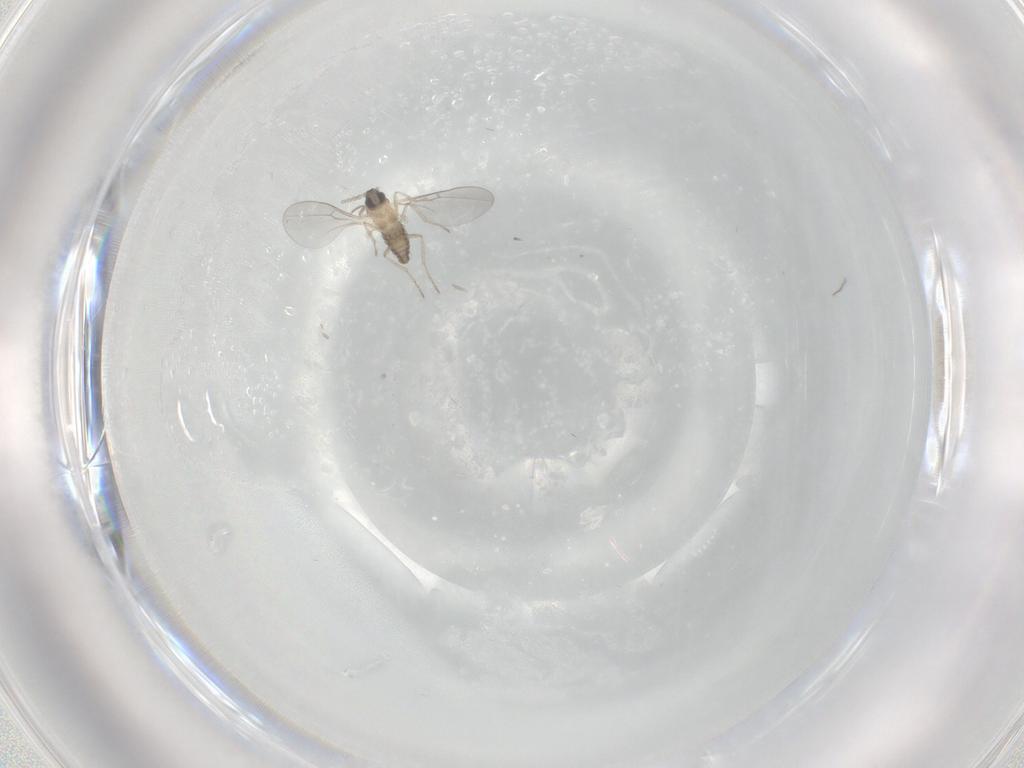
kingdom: Animalia
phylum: Arthropoda
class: Insecta
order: Diptera
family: Cecidomyiidae
